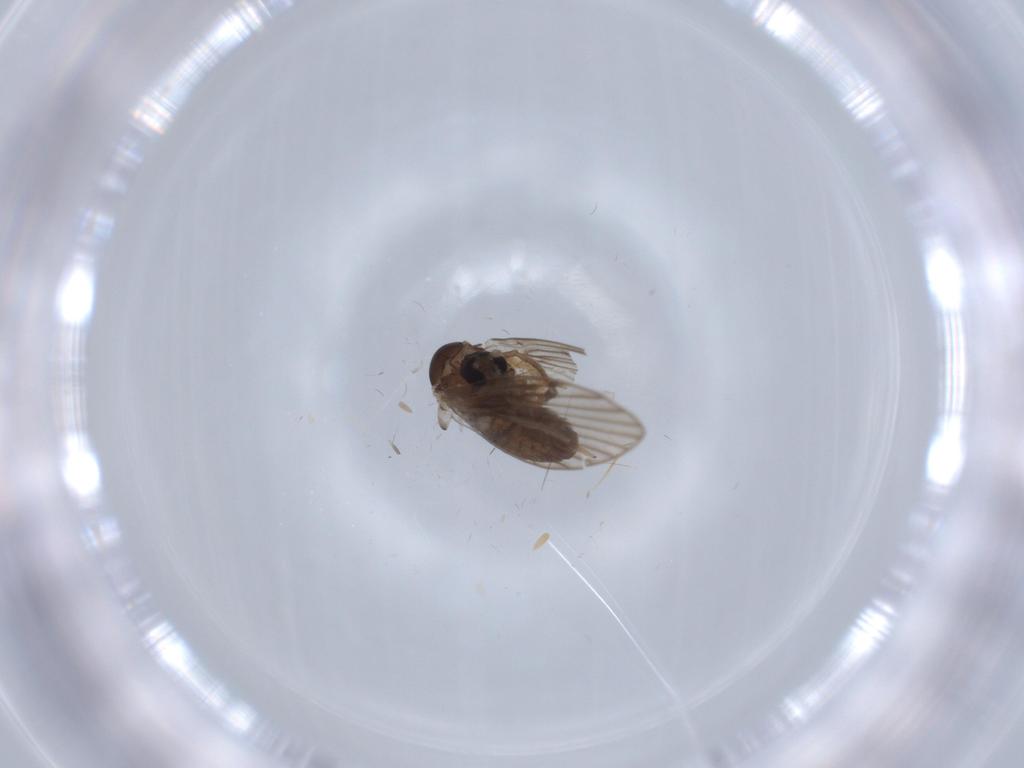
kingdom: Animalia
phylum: Arthropoda
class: Insecta
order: Diptera
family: Psychodidae
